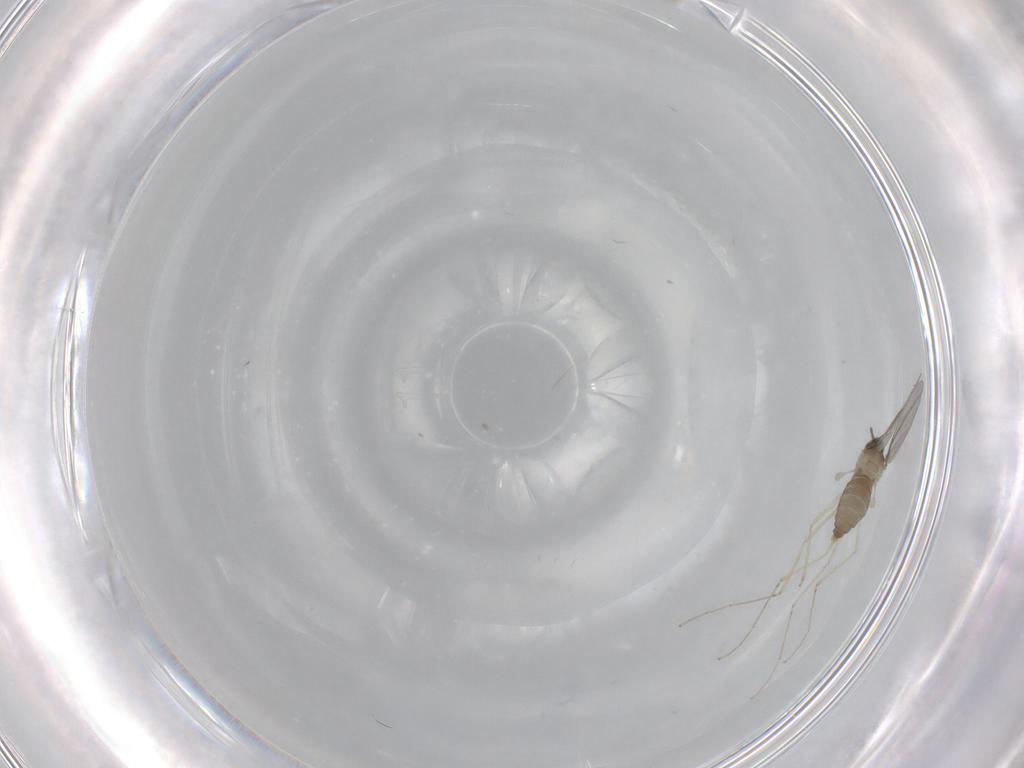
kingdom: Animalia
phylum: Arthropoda
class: Insecta
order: Diptera
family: Cecidomyiidae
